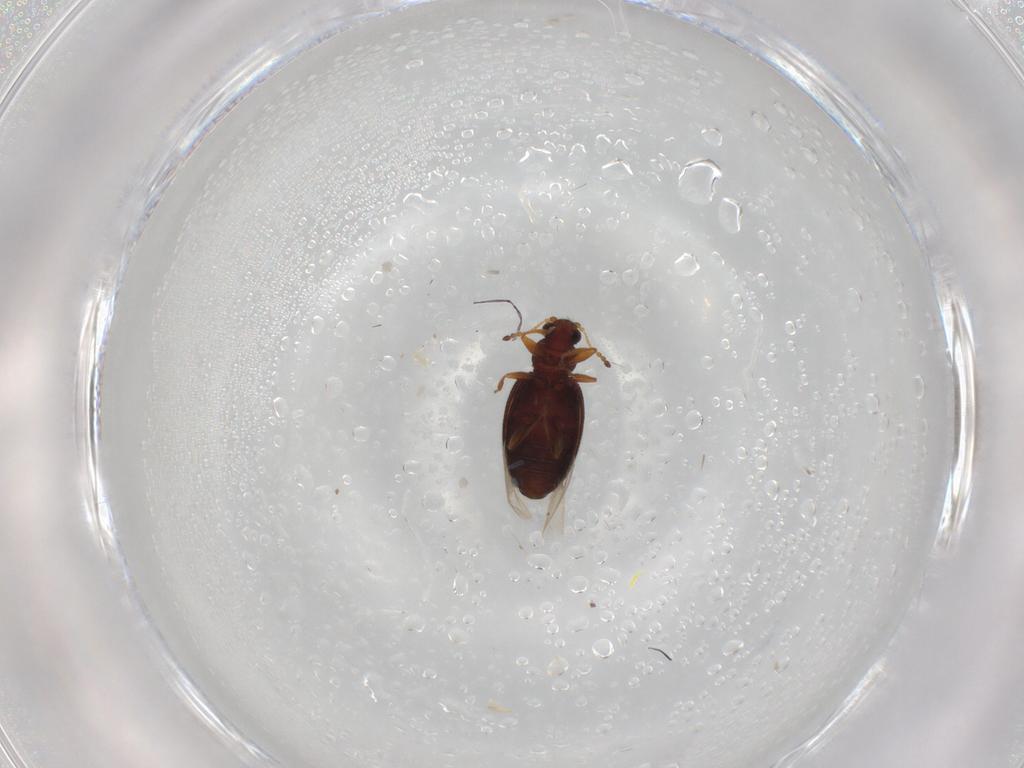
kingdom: Animalia
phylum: Arthropoda
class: Insecta
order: Coleoptera
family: Latridiidae
